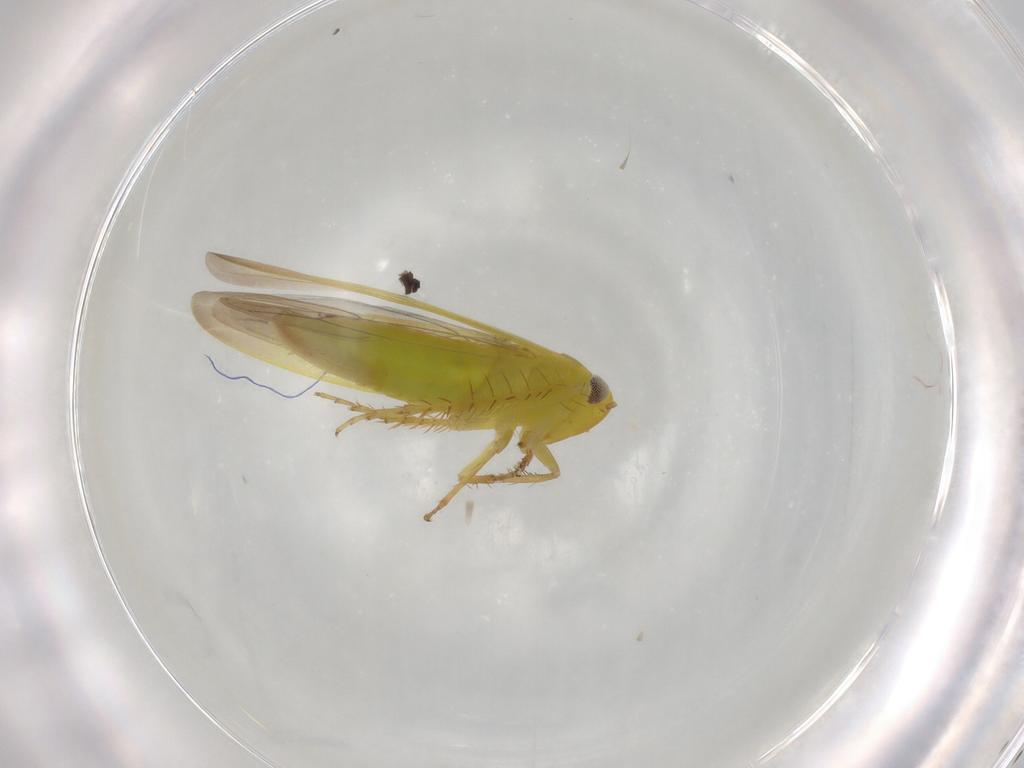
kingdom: Animalia
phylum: Arthropoda
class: Insecta
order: Hemiptera
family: Cicadellidae
